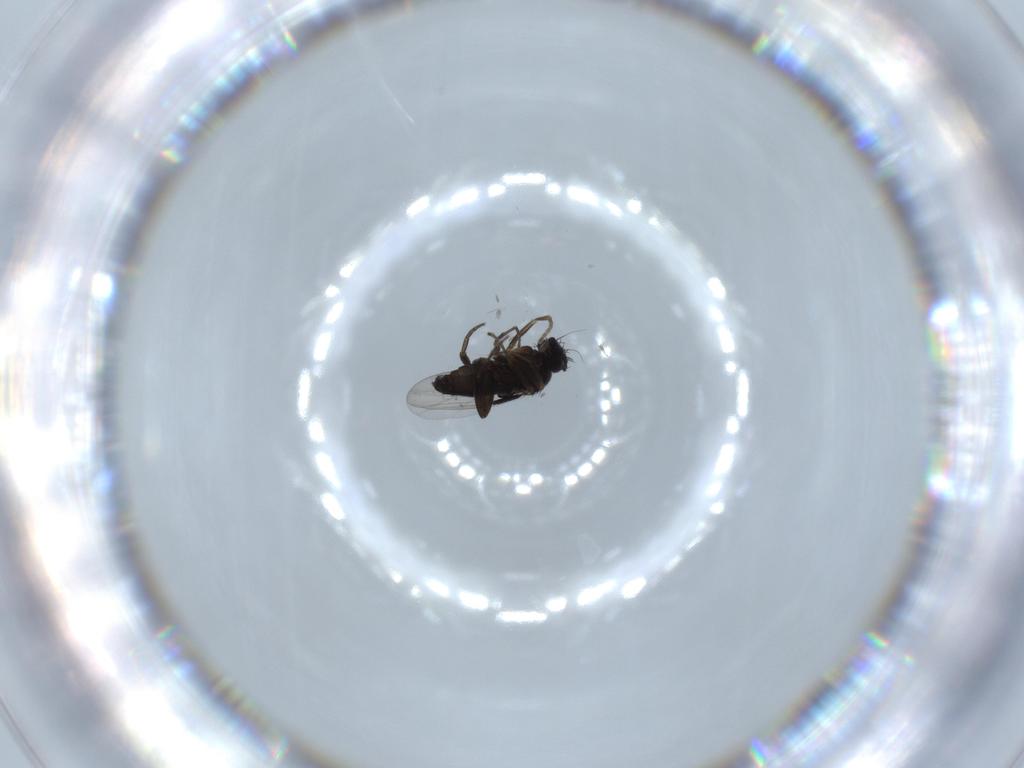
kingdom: Animalia
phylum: Arthropoda
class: Insecta
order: Diptera
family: Phoridae
